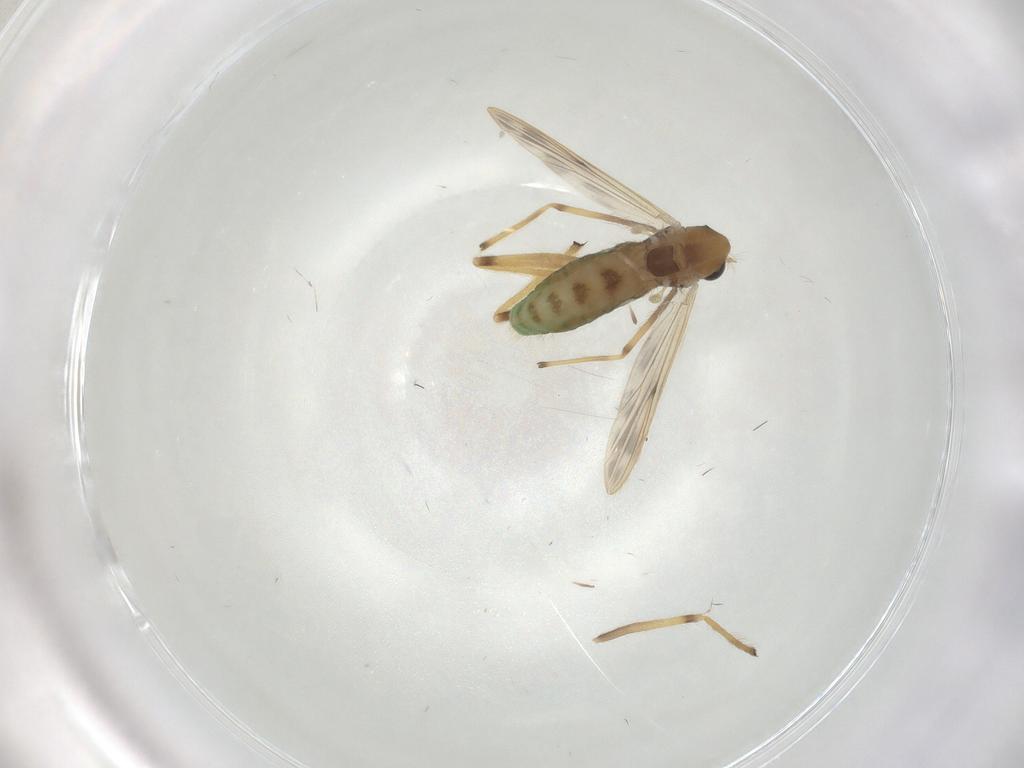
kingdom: Animalia
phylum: Arthropoda
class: Insecta
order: Diptera
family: Chironomidae
